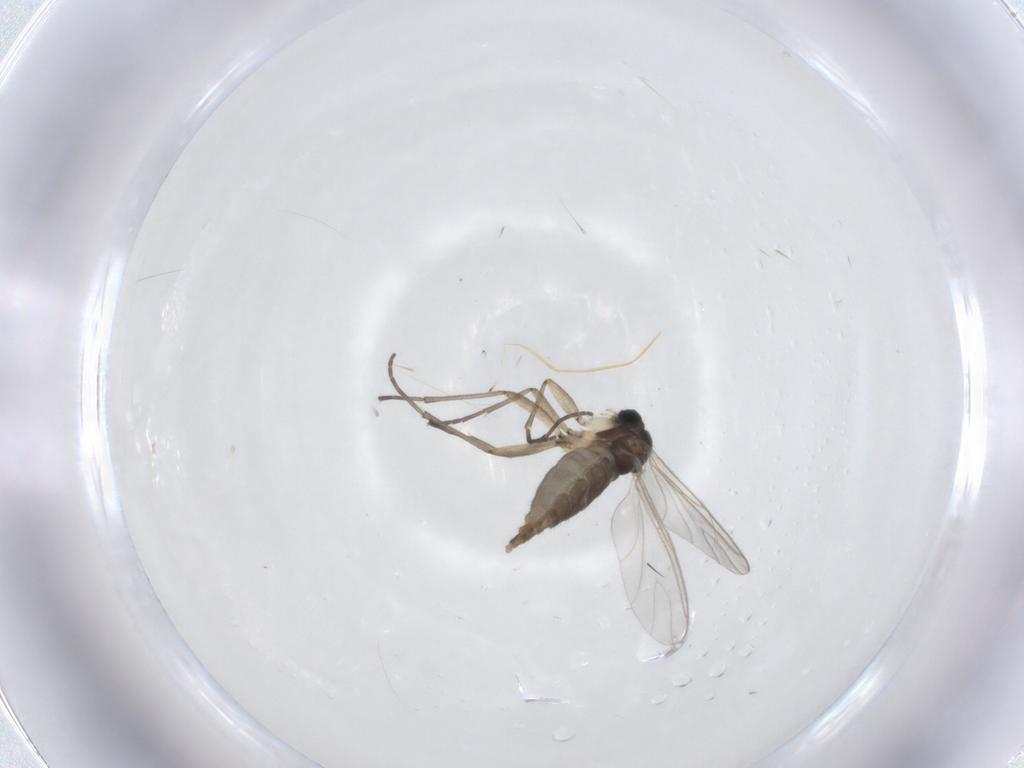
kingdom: Animalia
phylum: Arthropoda
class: Insecta
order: Diptera
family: Sciaridae
